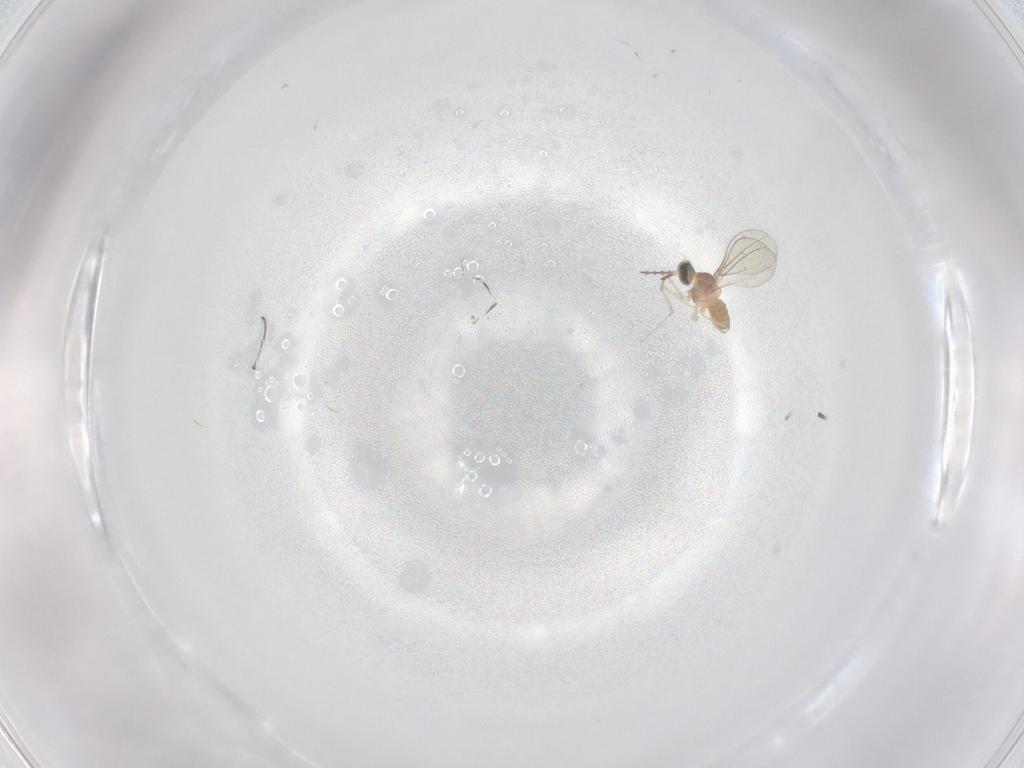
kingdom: Animalia
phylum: Arthropoda
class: Insecta
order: Diptera
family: Cecidomyiidae
